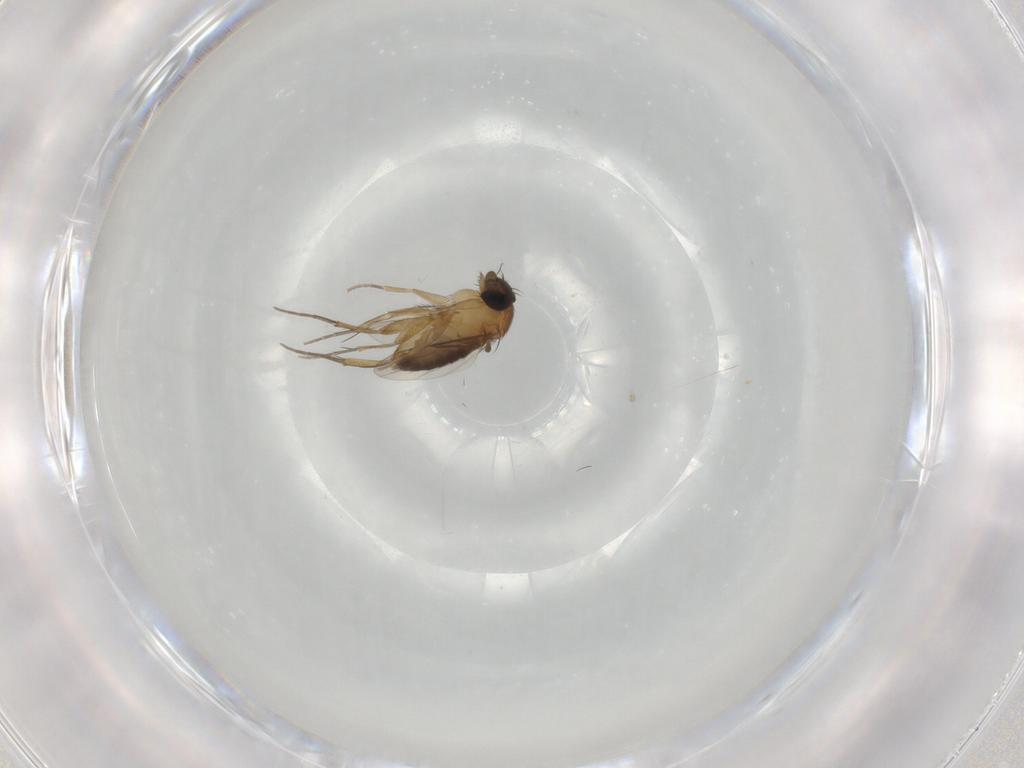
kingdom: Animalia
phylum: Arthropoda
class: Insecta
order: Diptera
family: Phoridae
